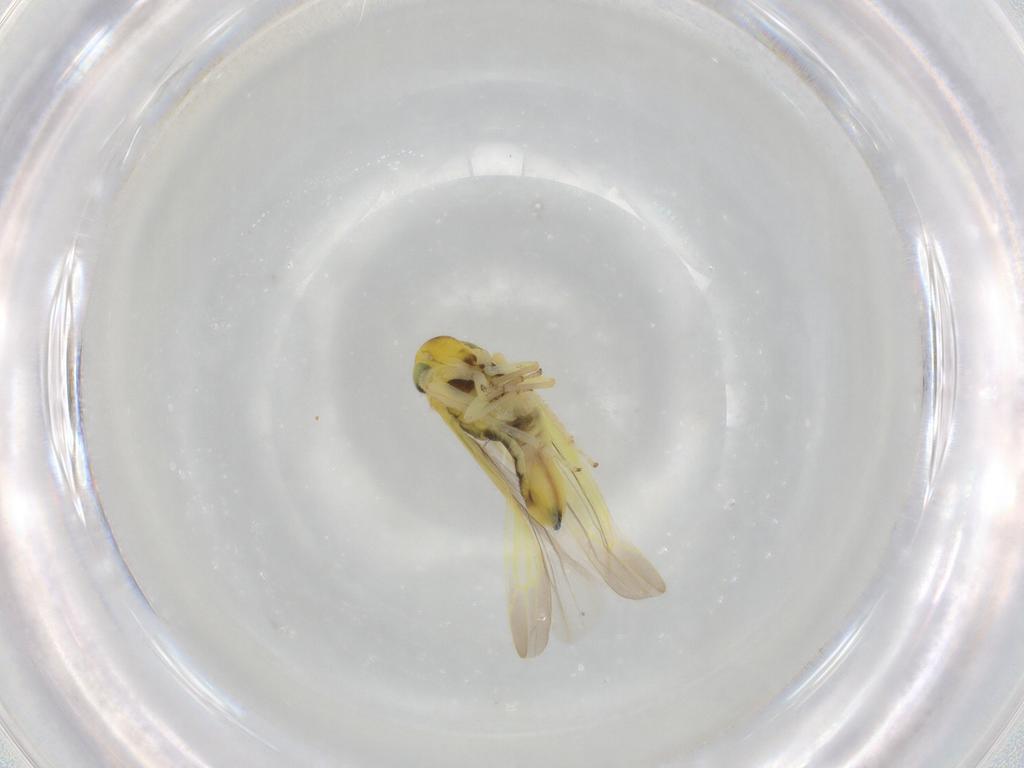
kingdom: Animalia
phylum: Arthropoda
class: Insecta
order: Hemiptera
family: Cicadellidae
